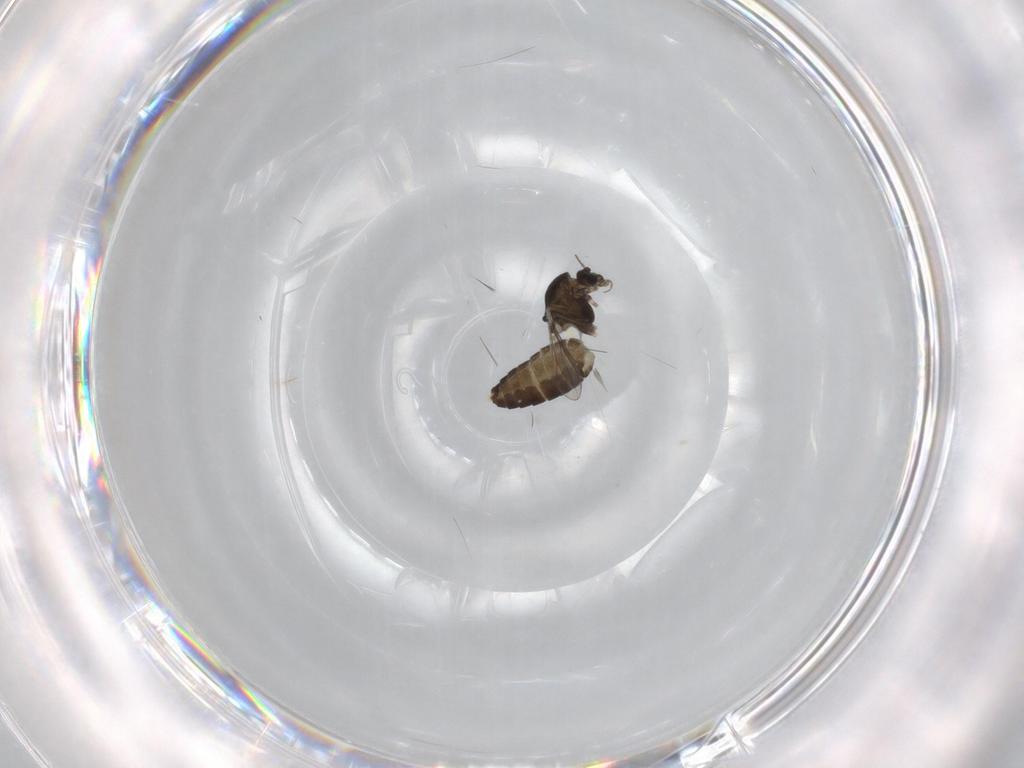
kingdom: Animalia
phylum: Arthropoda
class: Insecta
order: Diptera
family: Chironomidae
